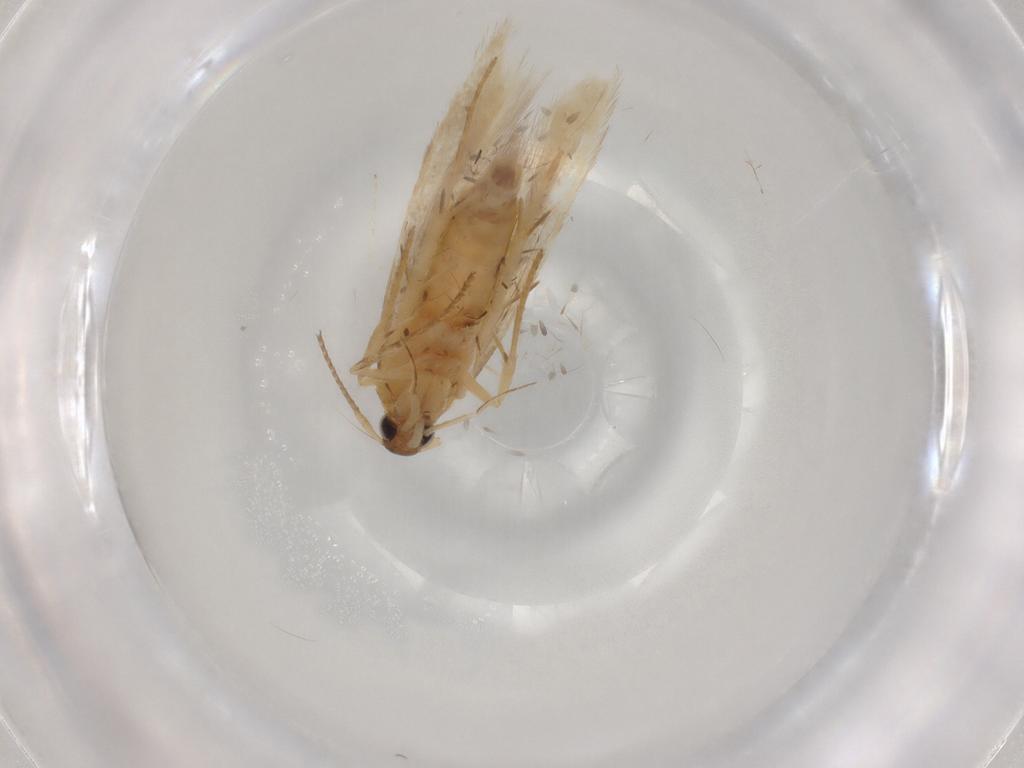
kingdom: Animalia
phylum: Arthropoda
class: Insecta
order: Lepidoptera
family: Lecithoceridae
